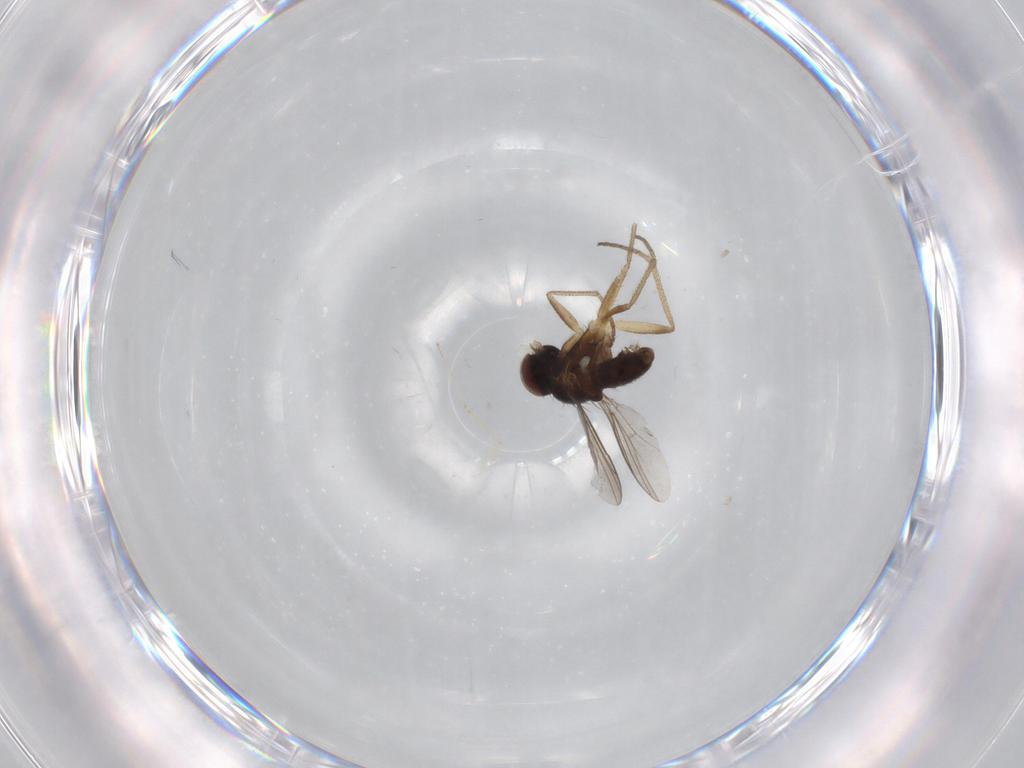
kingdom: Animalia
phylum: Arthropoda
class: Insecta
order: Diptera
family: Dolichopodidae
